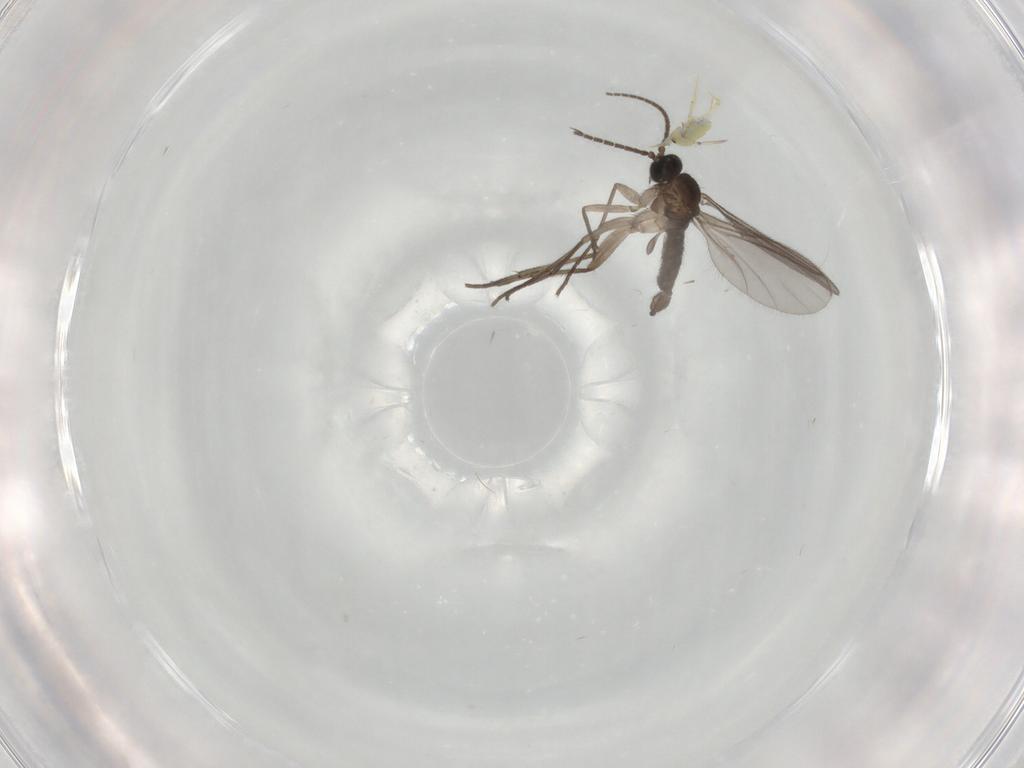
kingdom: Animalia
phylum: Arthropoda
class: Insecta
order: Diptera
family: Sciaridae
